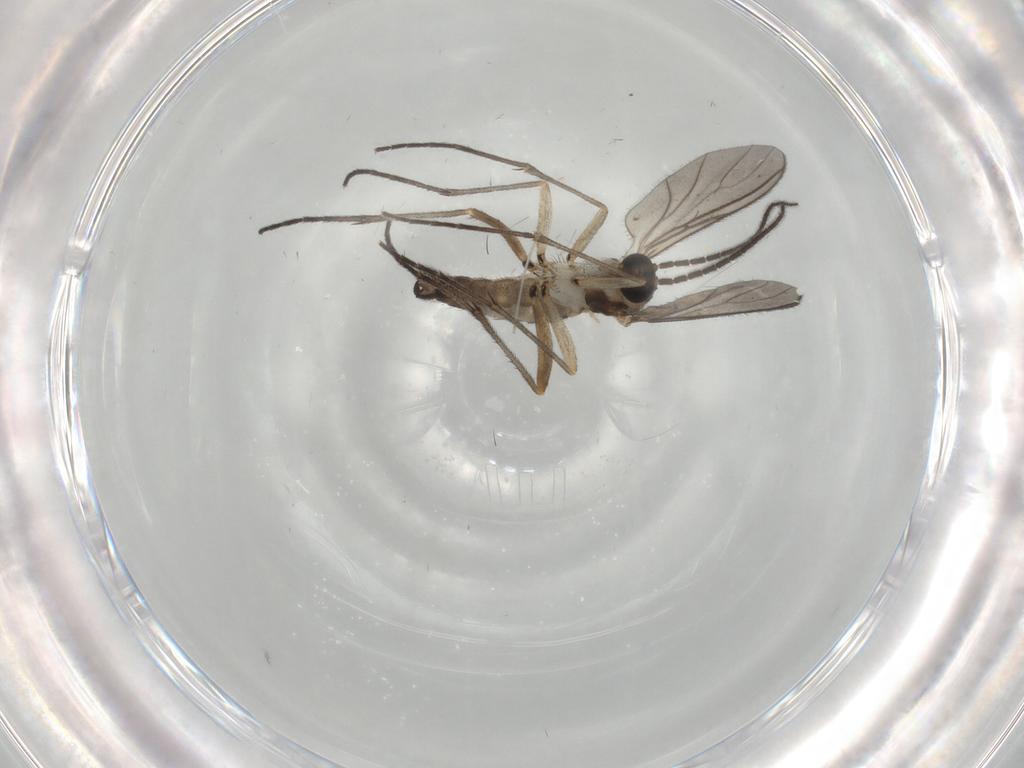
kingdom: Animalia
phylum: Arthropoda
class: Insecta
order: Diptera
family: Sciaridae
